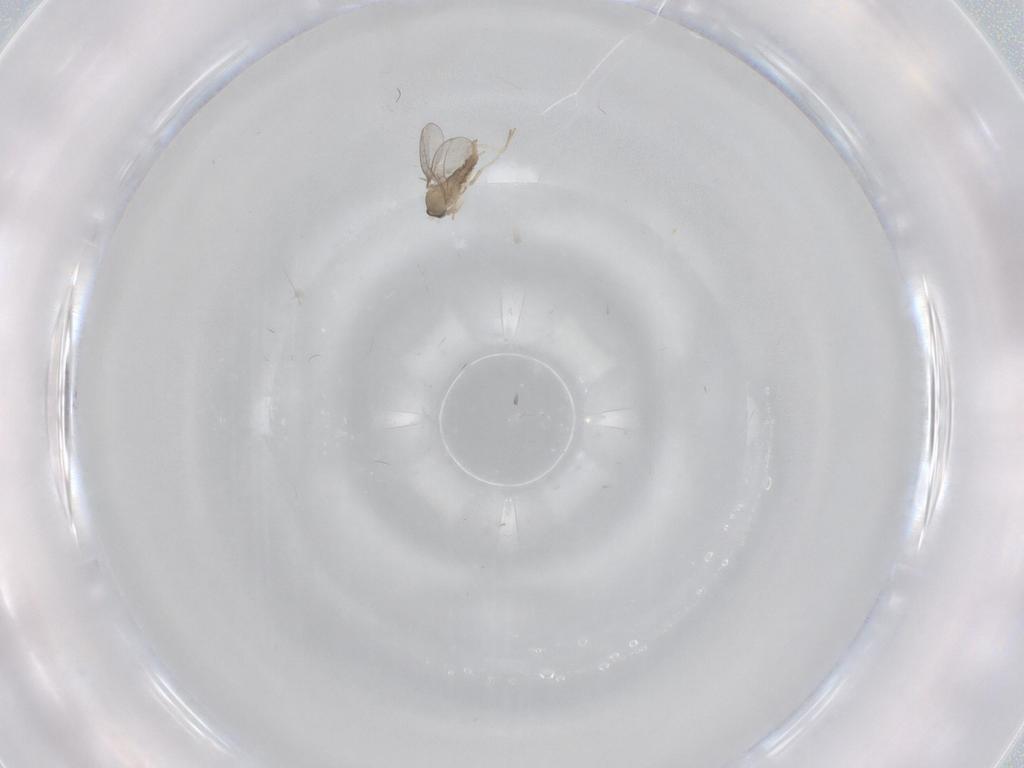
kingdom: Animalia
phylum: Arthropoda
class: Insecta
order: Diptera
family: Cecidomyiidae
